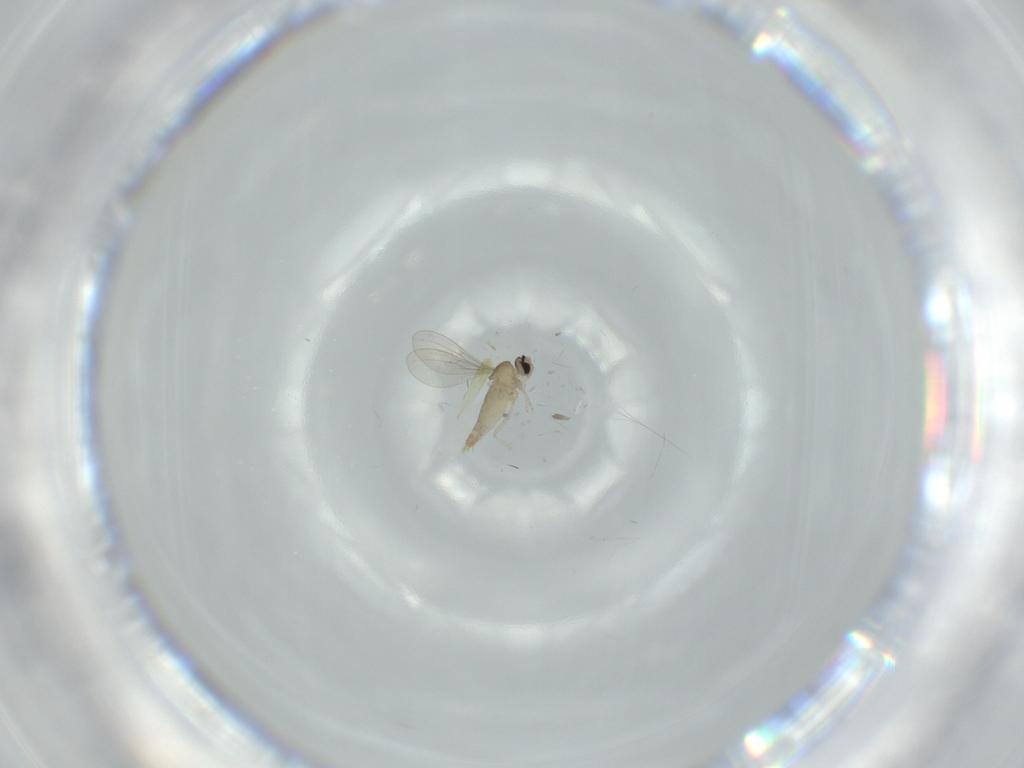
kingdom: Animalia
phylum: Arthropoda
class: Insecta
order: Diptera
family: Cecidomyiidae
